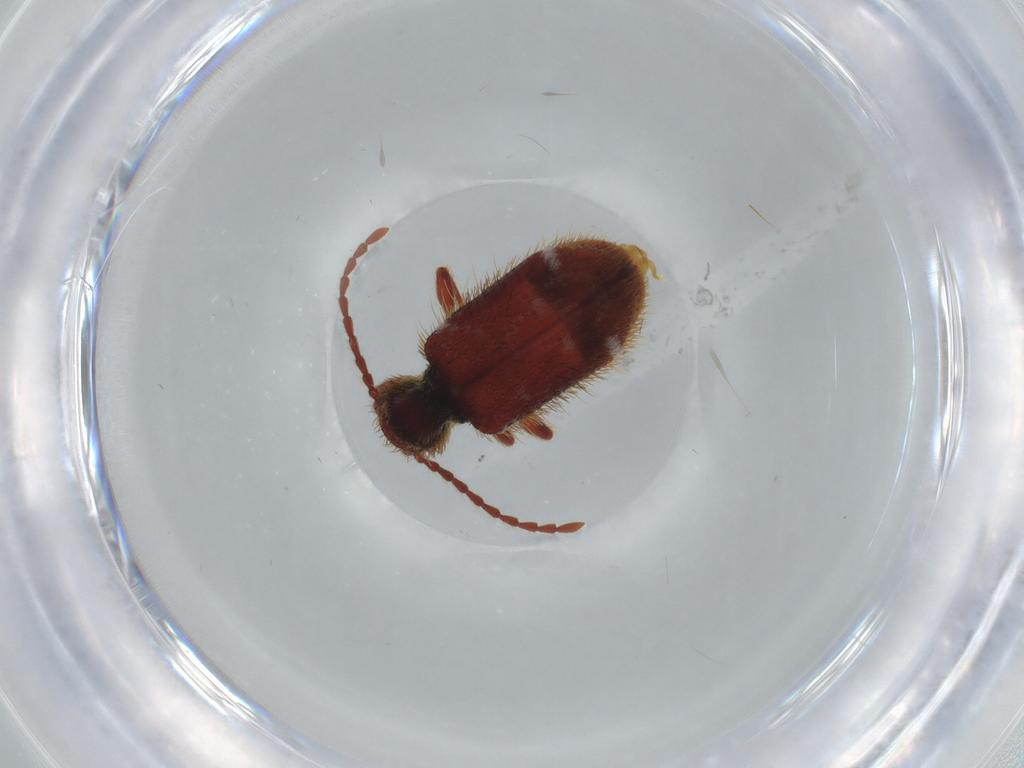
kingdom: Animalia
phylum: Arthropoda
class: Insecta
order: Coleoptera
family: Ptinidae
